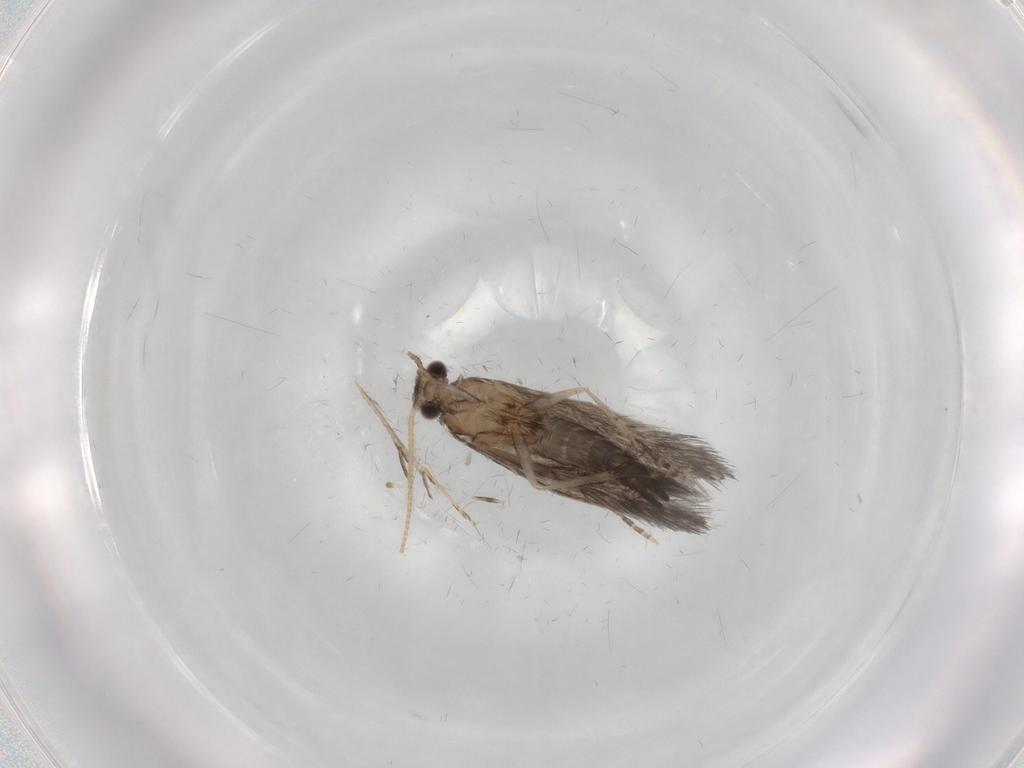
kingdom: Animalia
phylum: Arthropoda
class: Insecta
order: Trichoptera
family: Hydroptilidae
